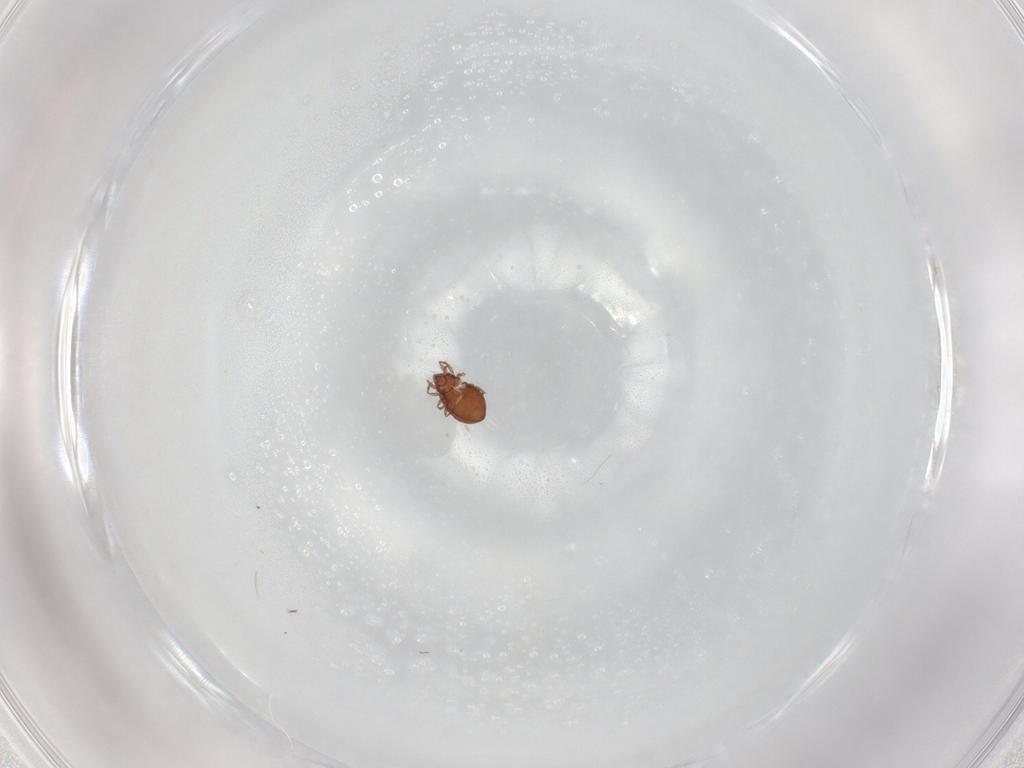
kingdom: Animalia
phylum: Arthropoda
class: Arachnida
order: Sarcoptiformes
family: Oribatulidae
